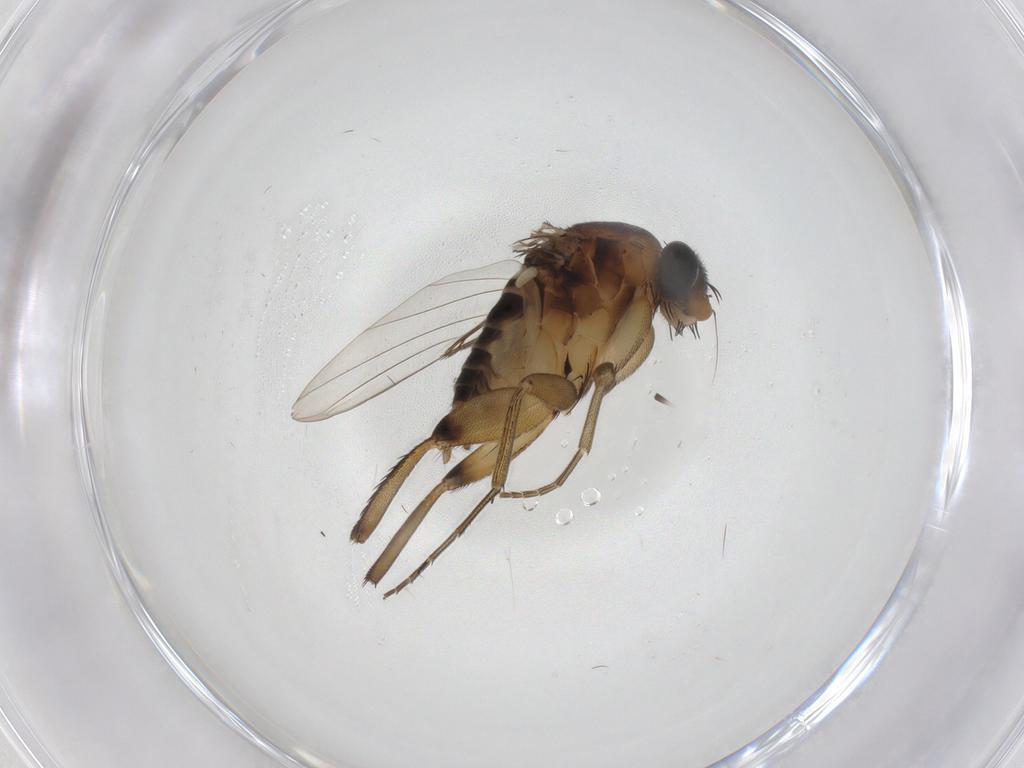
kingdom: Animalia
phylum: Arthropoda
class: Insecta
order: Diptera
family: Phoridae
